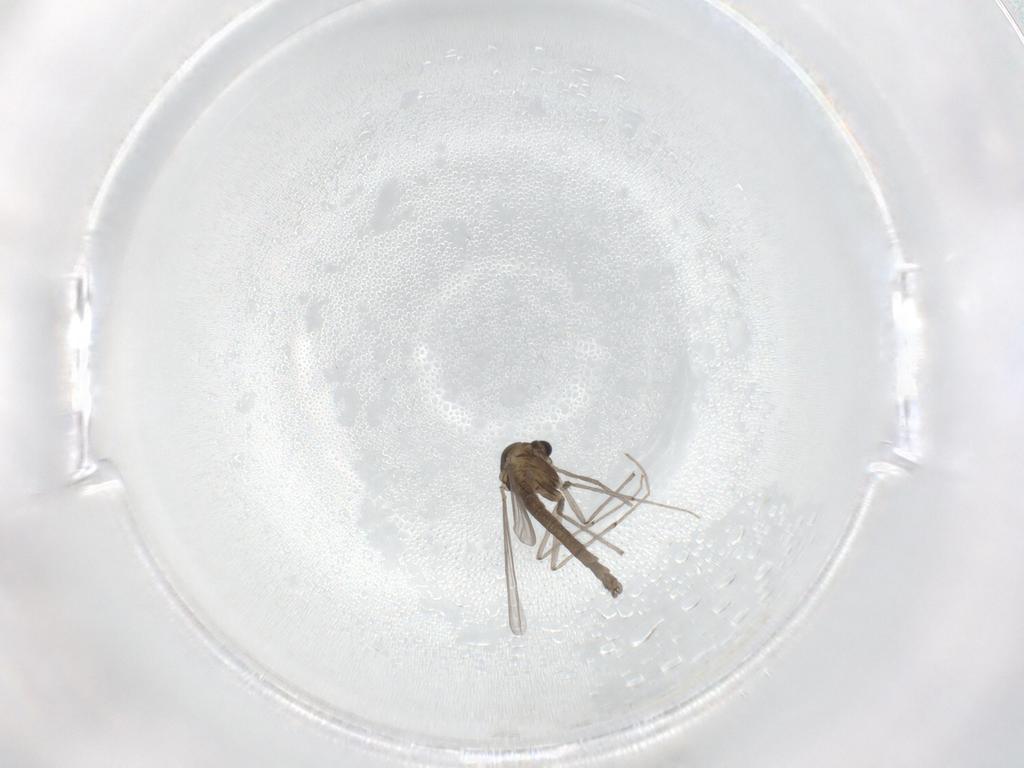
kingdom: Animalia
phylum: Arthropoda
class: Insecta
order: Diptera
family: Chironomidae
